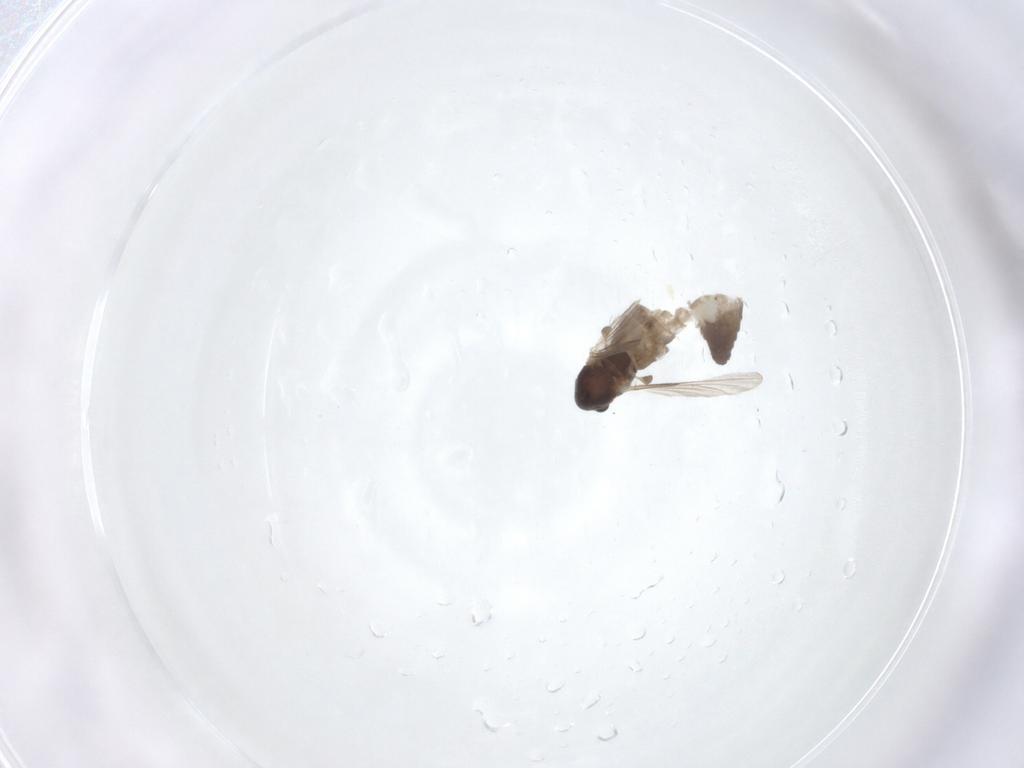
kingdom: Animalia
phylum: Arthropoda
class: Insecta
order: Diptera
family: Chironomidae
